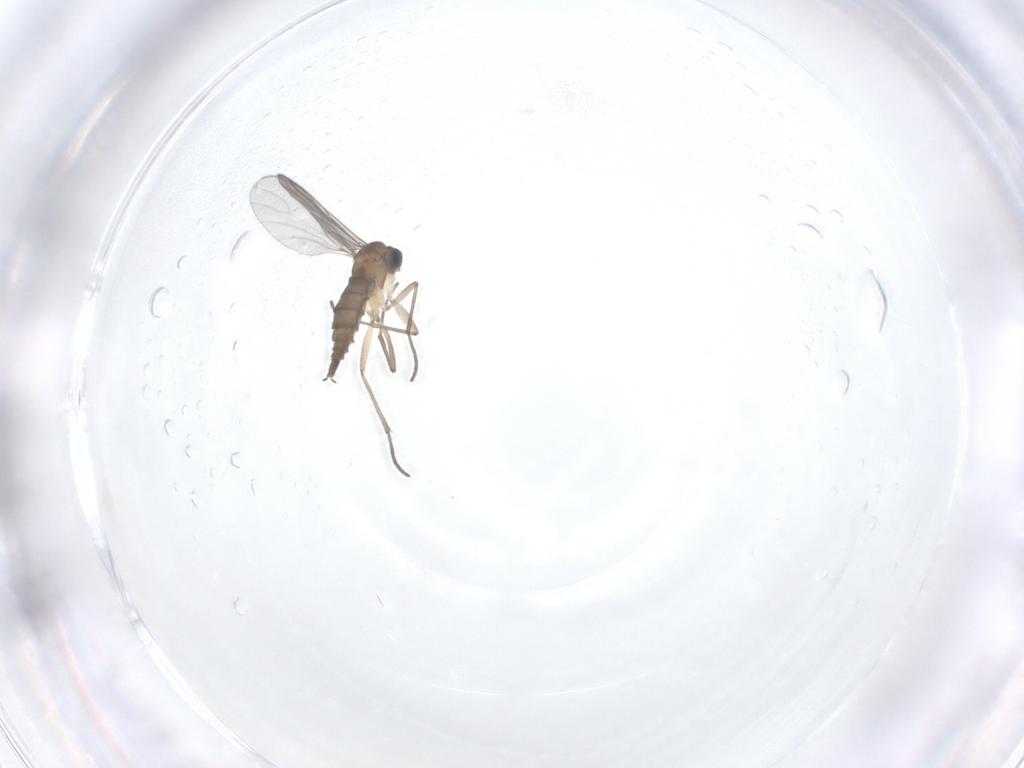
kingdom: Animalia
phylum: Arthropoda
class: Insecta
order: Diptera
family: Sciaridae
